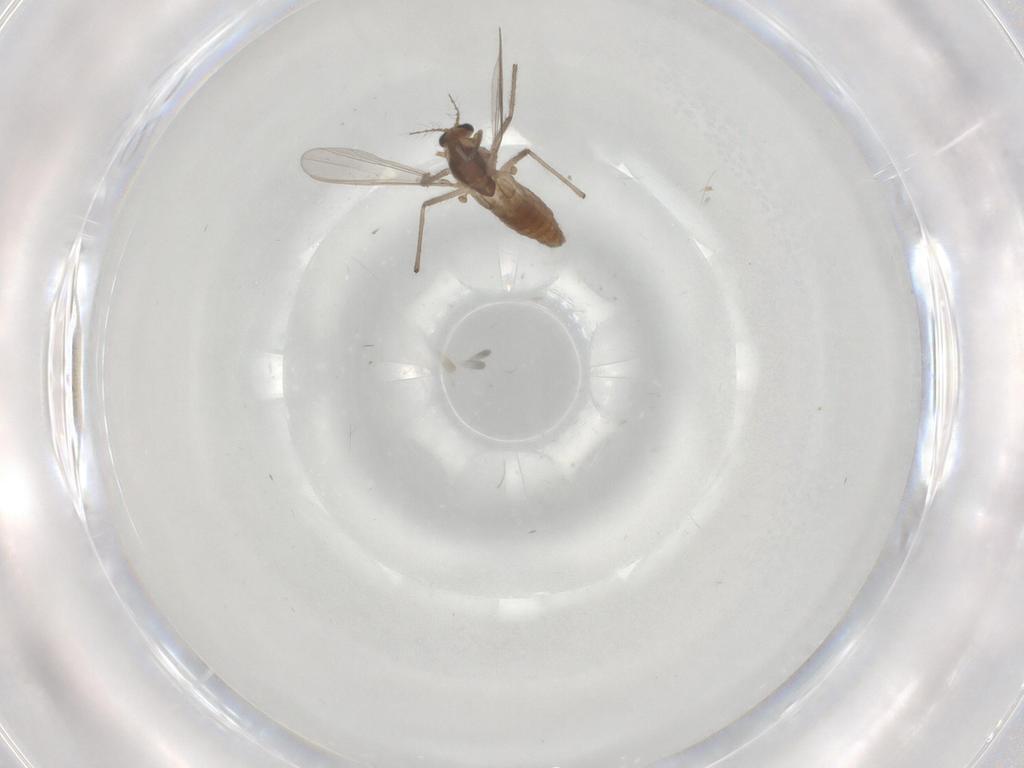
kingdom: Animalia
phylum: Arthropoda
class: Insecta
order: Diptera
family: Chironomidae
